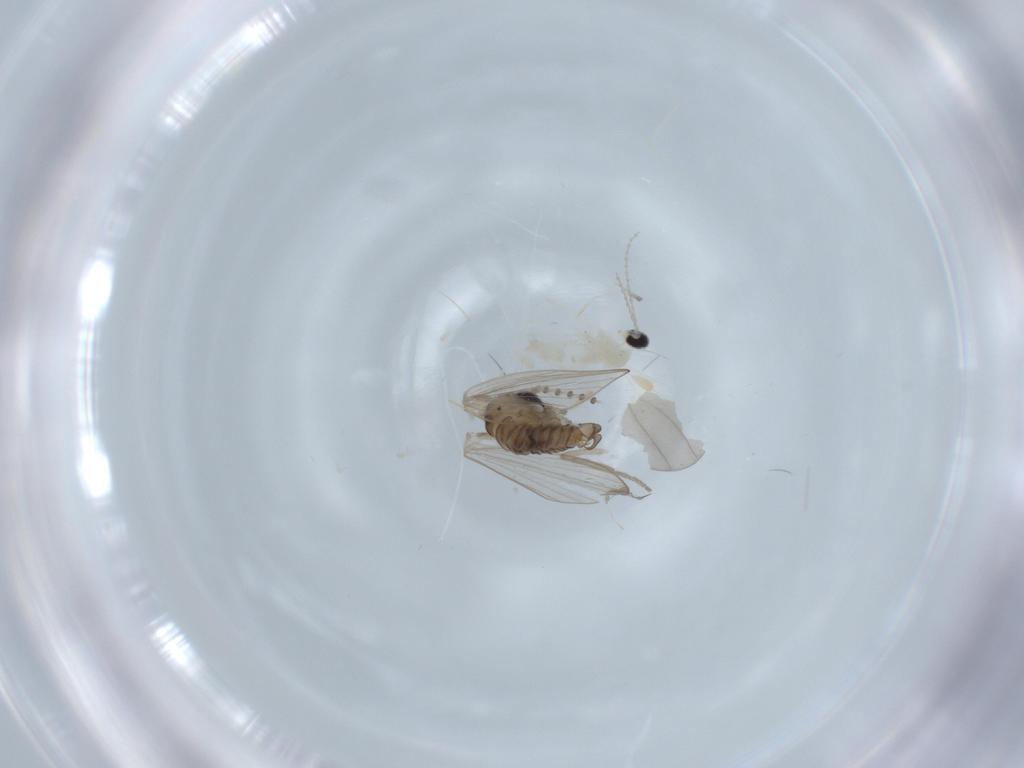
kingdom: Animalia
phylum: Arthropoda
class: Insecta
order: Diptera
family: Psychodidae
